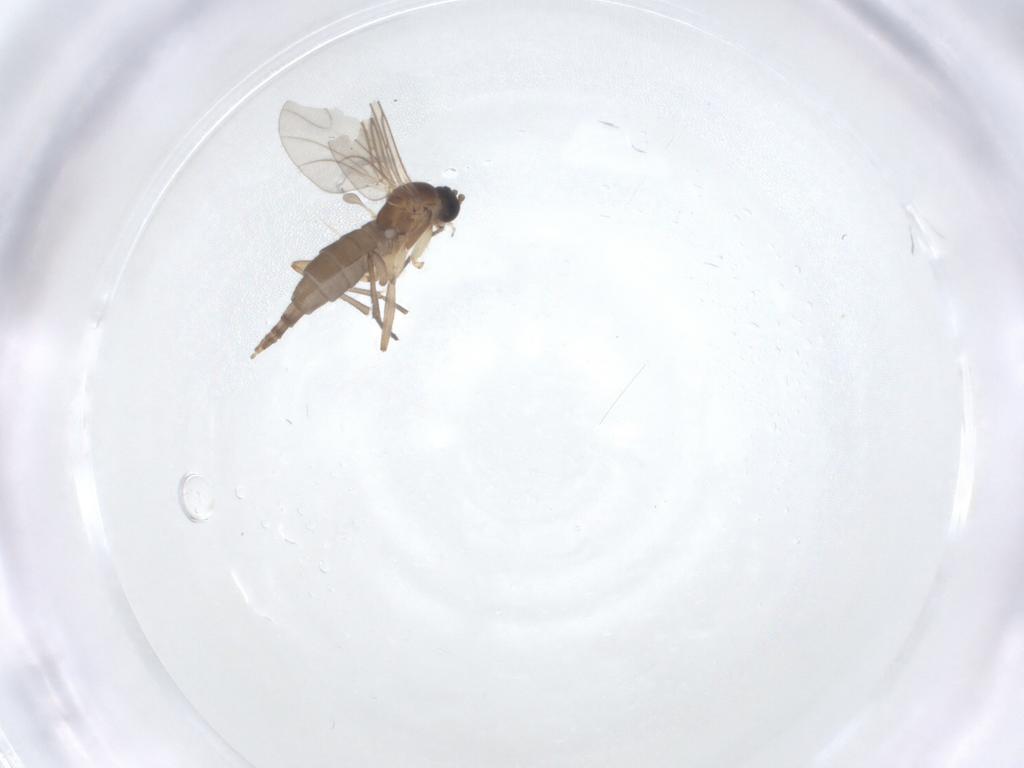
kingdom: Animalia
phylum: Arthropoda
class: Insecta
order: Diptera
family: Sciaridae
